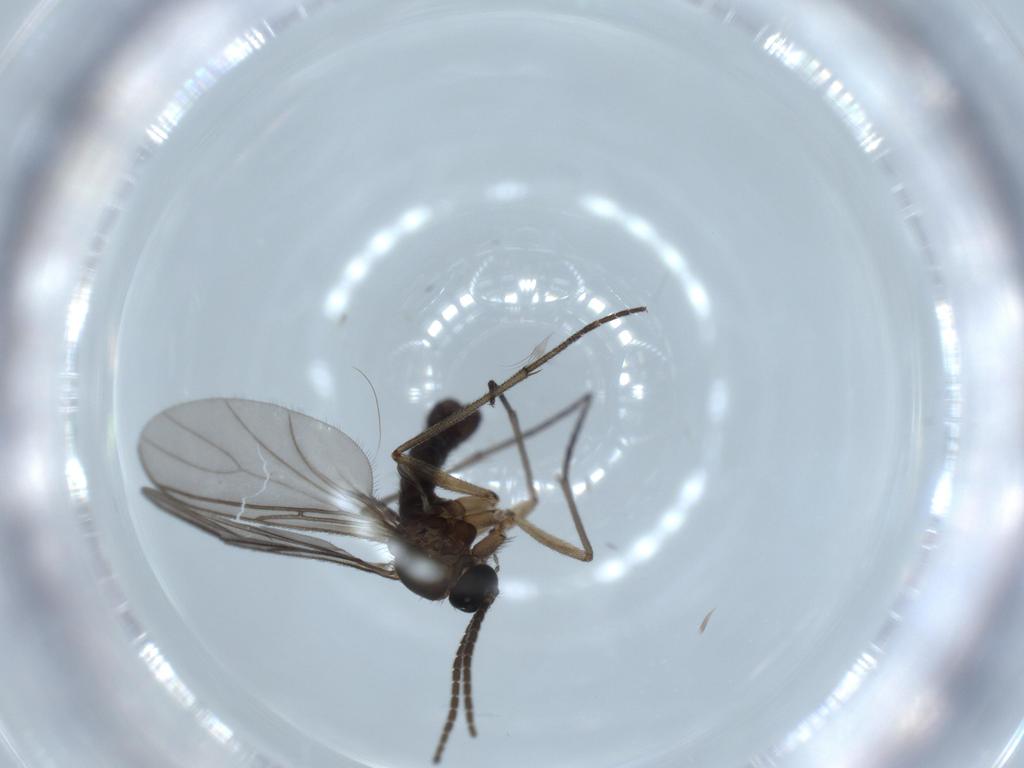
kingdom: Animalia
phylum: Arthropoda
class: Insecta
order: Diptera
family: Sciaridae
